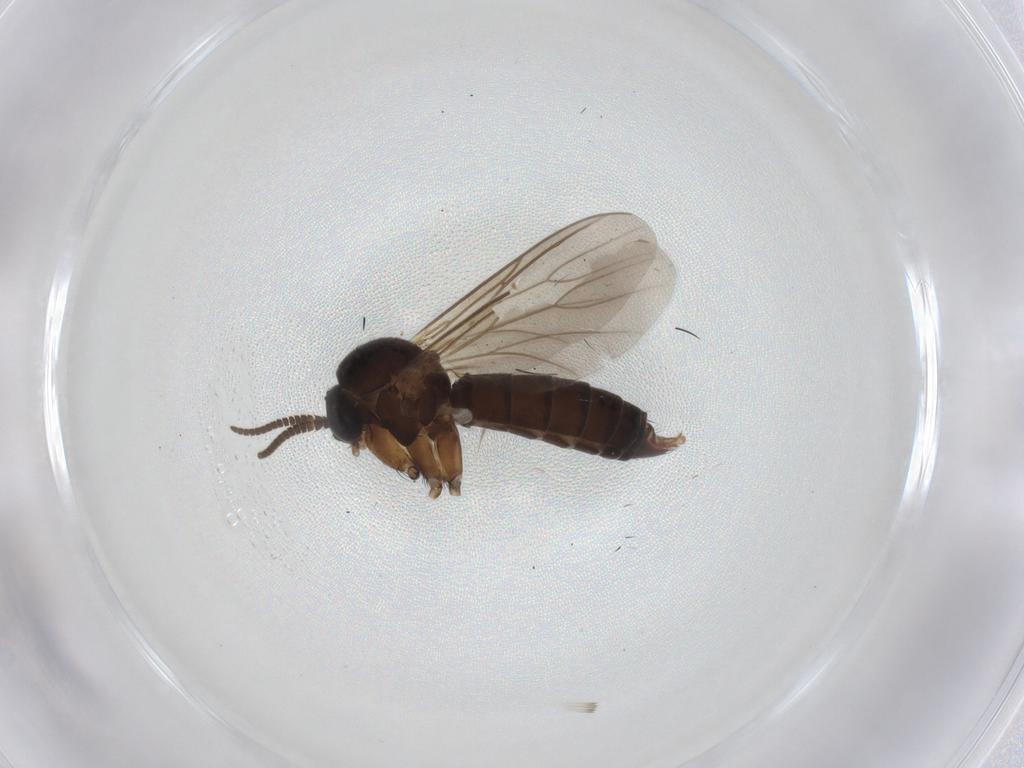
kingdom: Animalia
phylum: Arthropoda
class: Insecta
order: Diptera
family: Mycetophilidae
